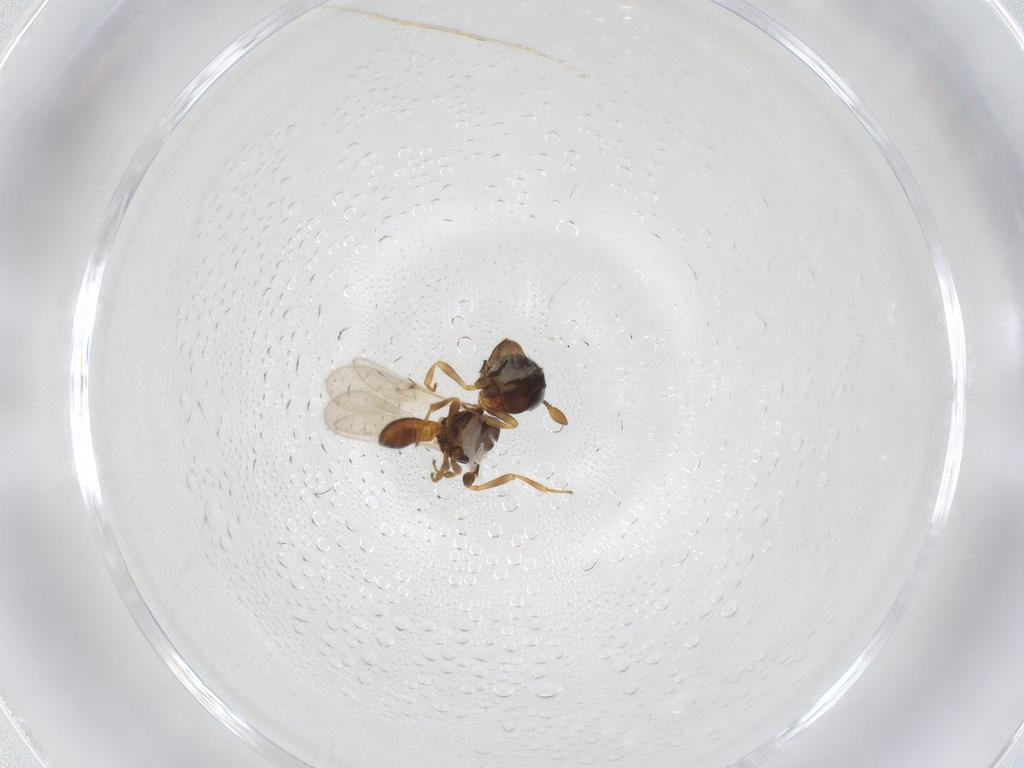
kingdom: Animalia
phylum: Arthropoda
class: Insecta
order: Hymenoptera
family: Scelionidae
